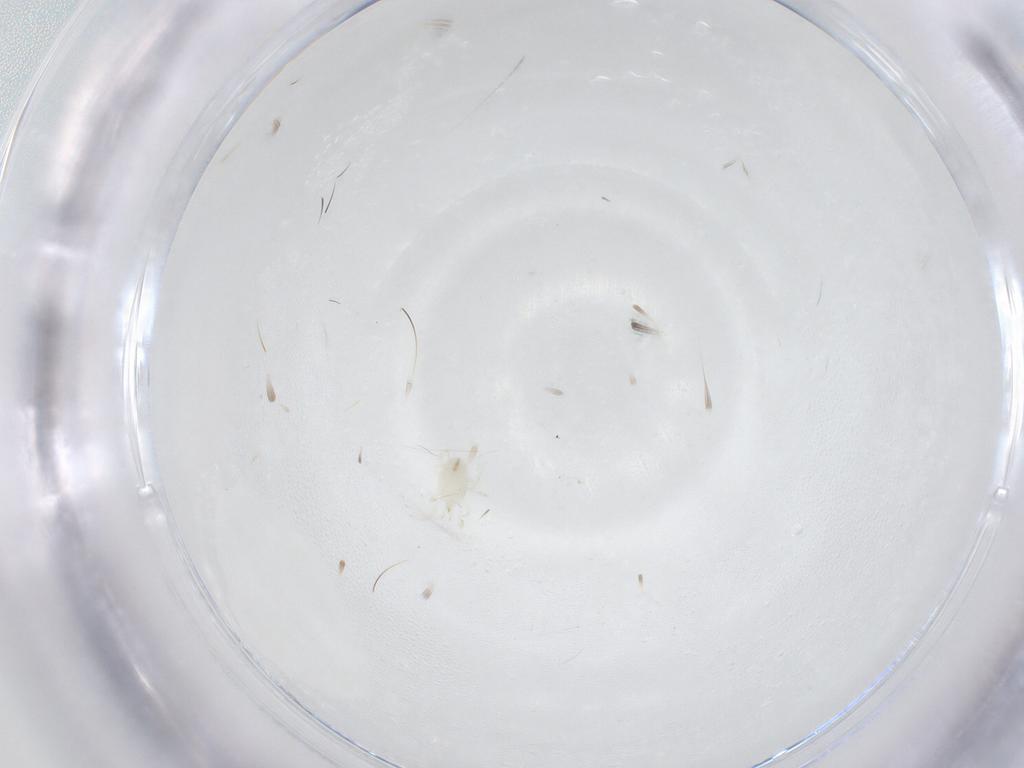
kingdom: Animalia
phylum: Arthropoda
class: Arachnida
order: Mesostigmata
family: Phytoseiidae
